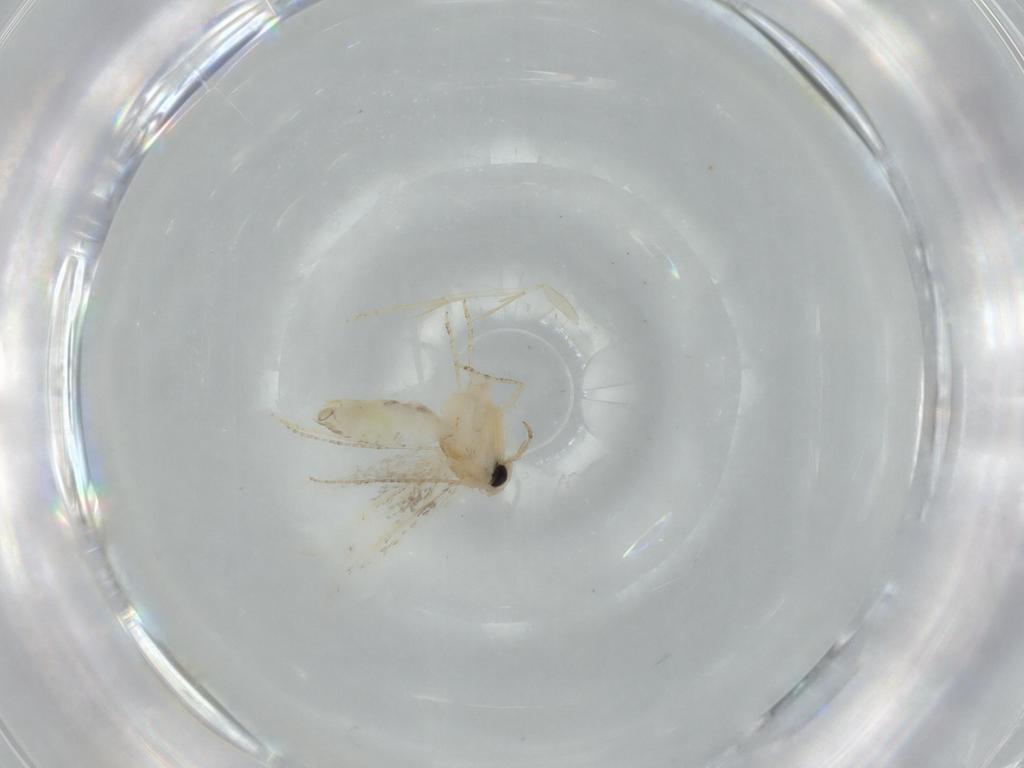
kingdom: Animalia
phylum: Arthropoda
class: Insecta
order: Lepidoptera
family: Bucculatricidae
